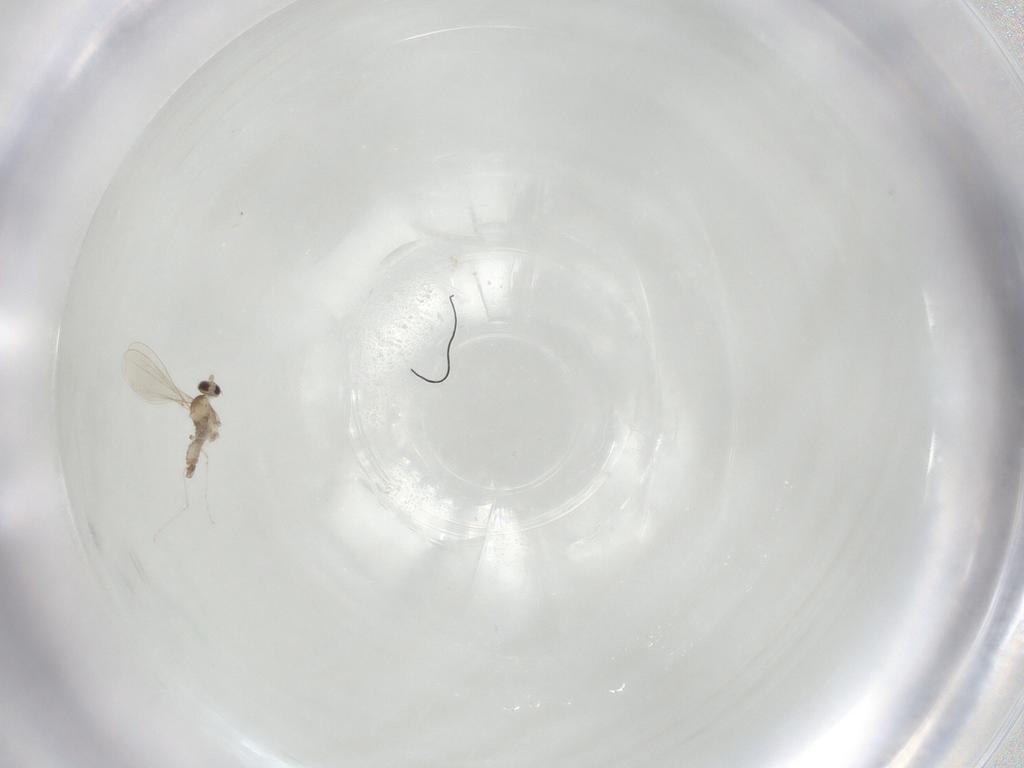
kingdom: Animalia
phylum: Arthropoda
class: Insecta
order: Diptera
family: Cecidomyiidae
